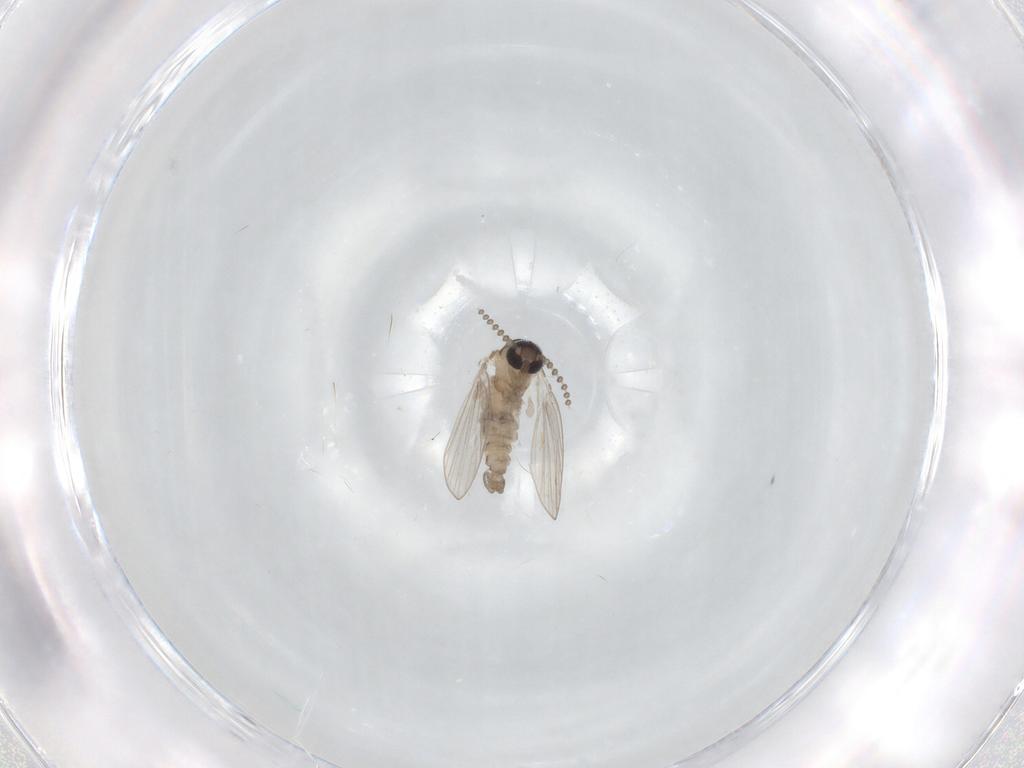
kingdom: Animalia
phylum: Arthropoda
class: Insecta
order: Diptera
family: Psychodidae
